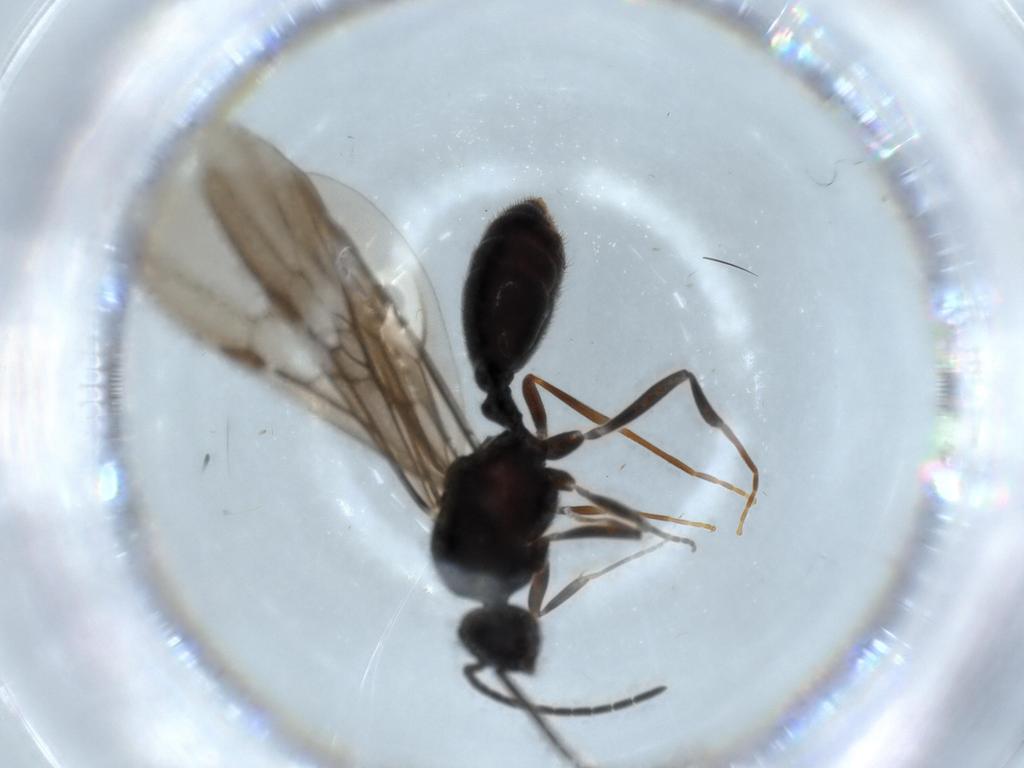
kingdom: Animalia
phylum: Arthropoda
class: Insecta
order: Hymenoptera
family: Formicidae
